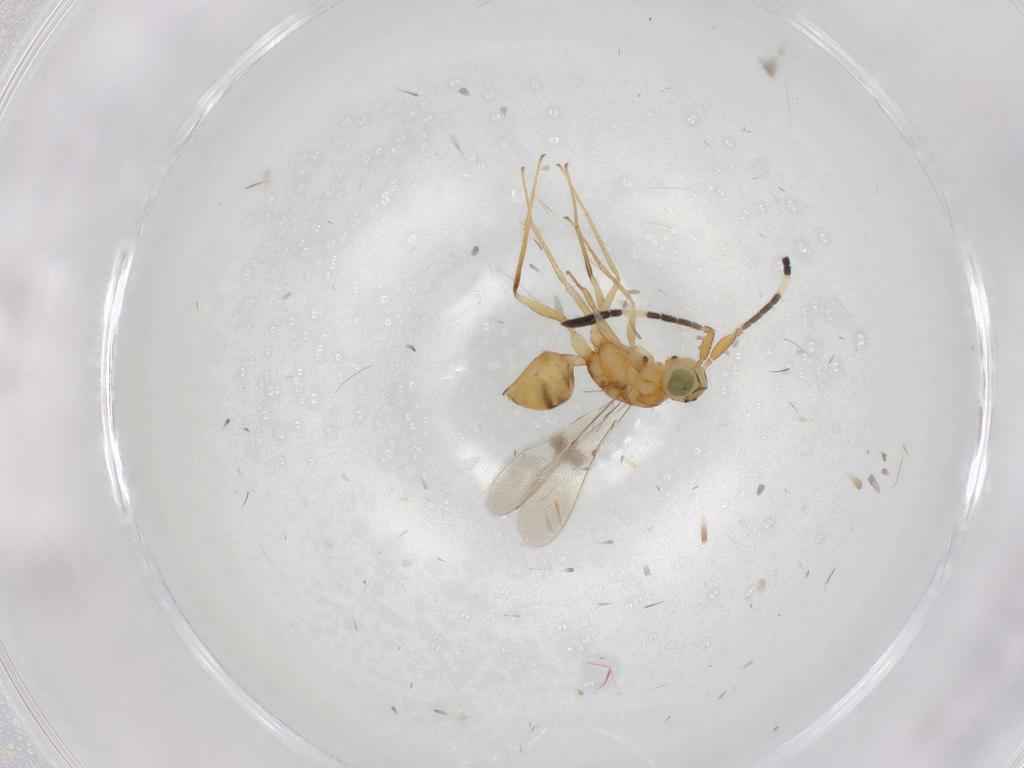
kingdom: Animalia
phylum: Arthropoda
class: Insecta
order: Hymenoptera
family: Mymaridae
